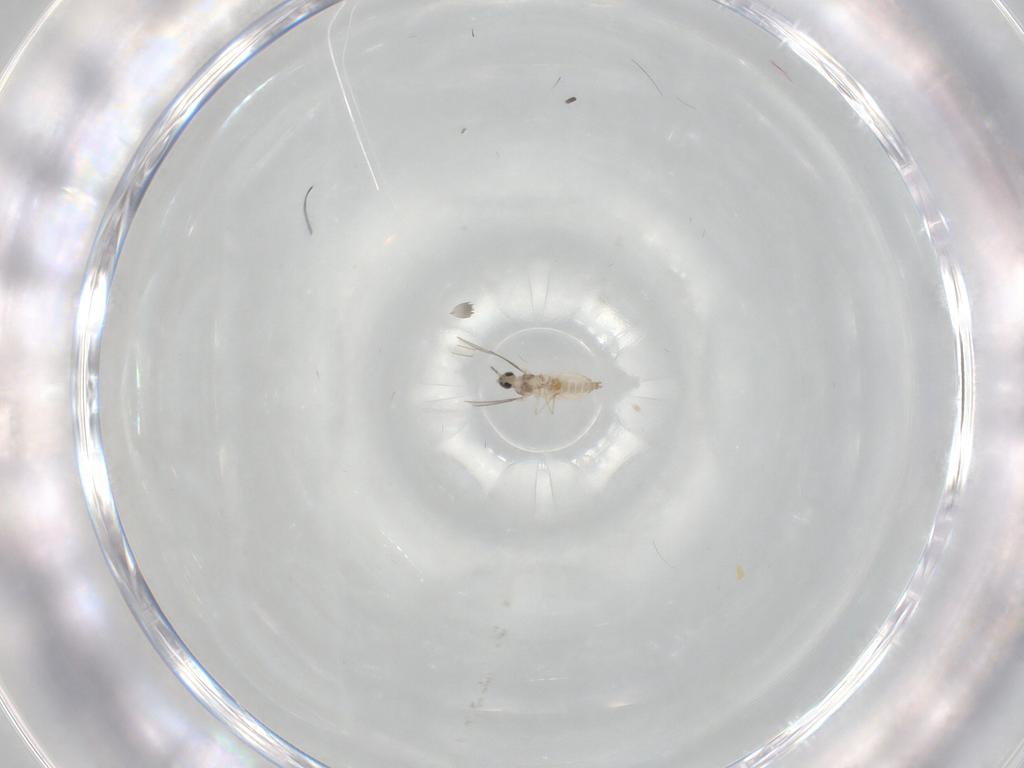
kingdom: Animalia
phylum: Arthropoda
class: Insecta
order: Diptera
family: Cecidomyiidae
